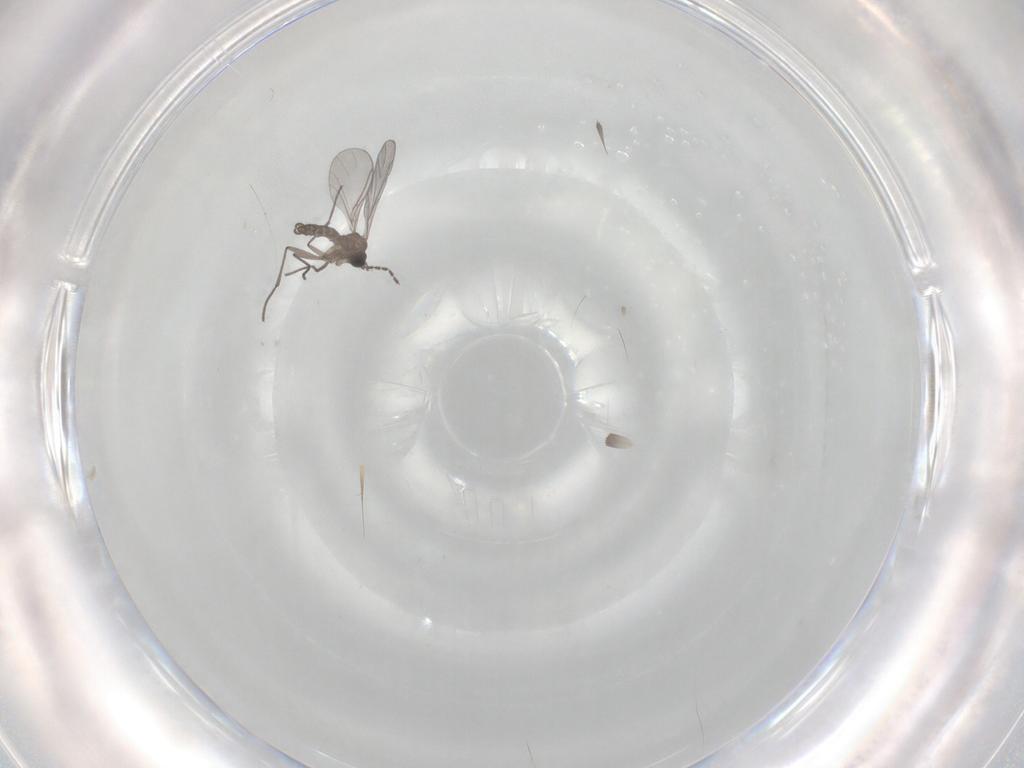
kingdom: Animalia
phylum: Arthropoda
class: Insecta
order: Diptera
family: Sciaridae
